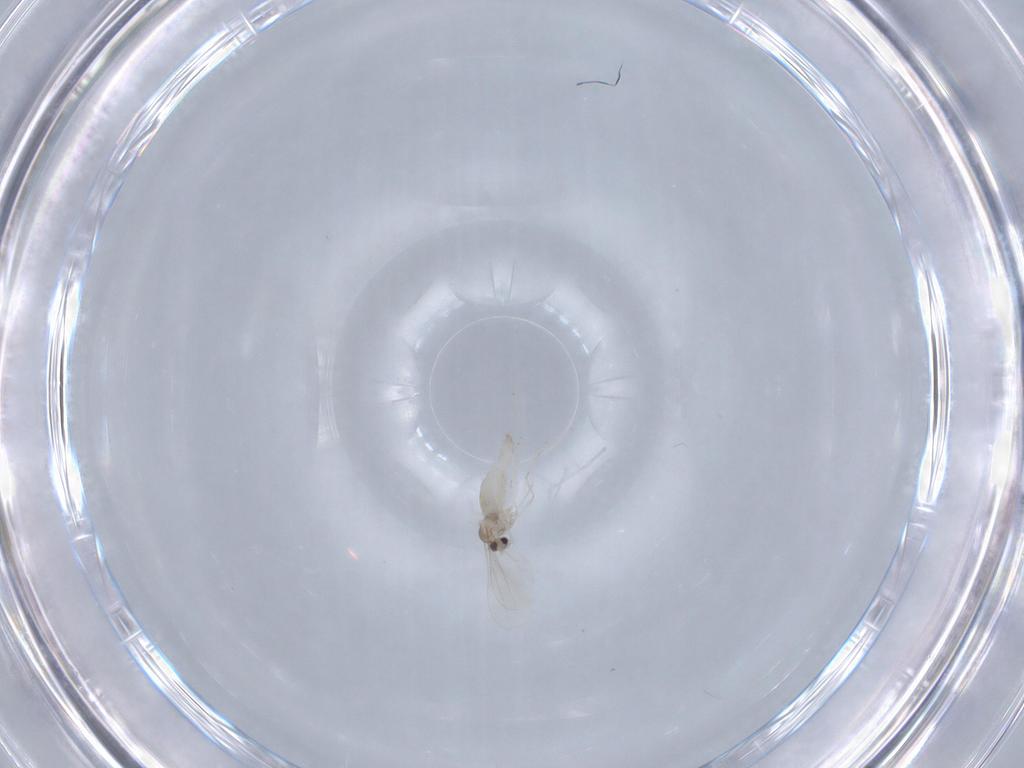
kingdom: Animalia
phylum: Arthropoda
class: Insecta
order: Diptera
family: Cecidomyiidae
